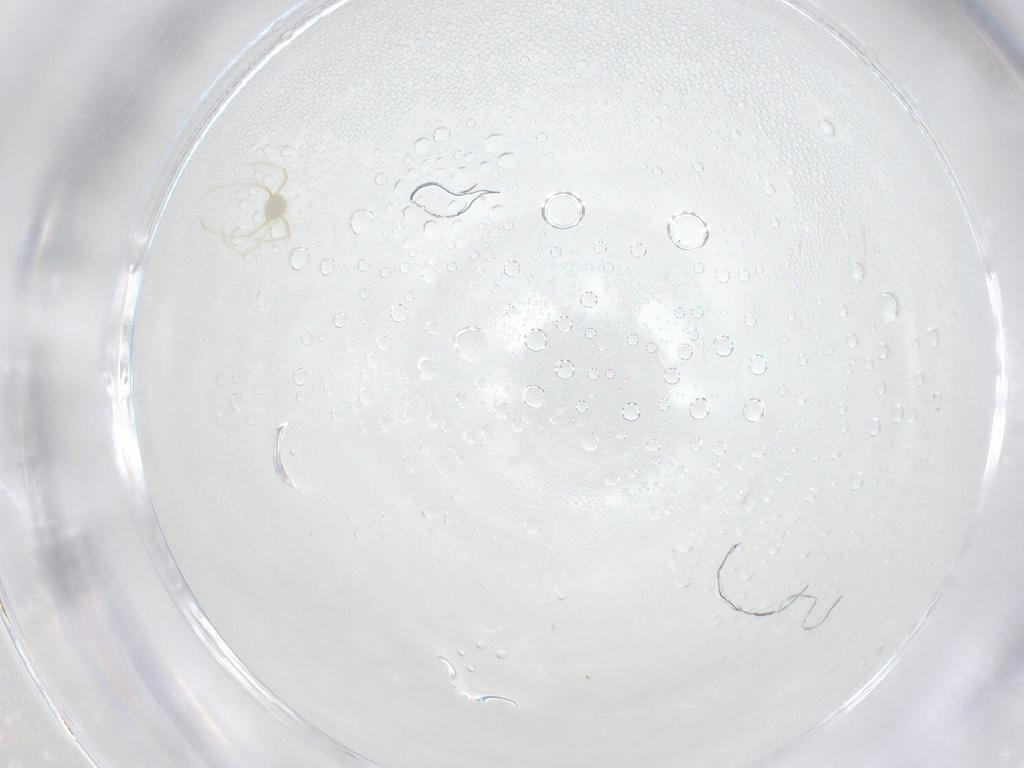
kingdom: Animalia
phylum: Arthropoda
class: Arachnida
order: Trombidiformes
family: Erythraeidae
